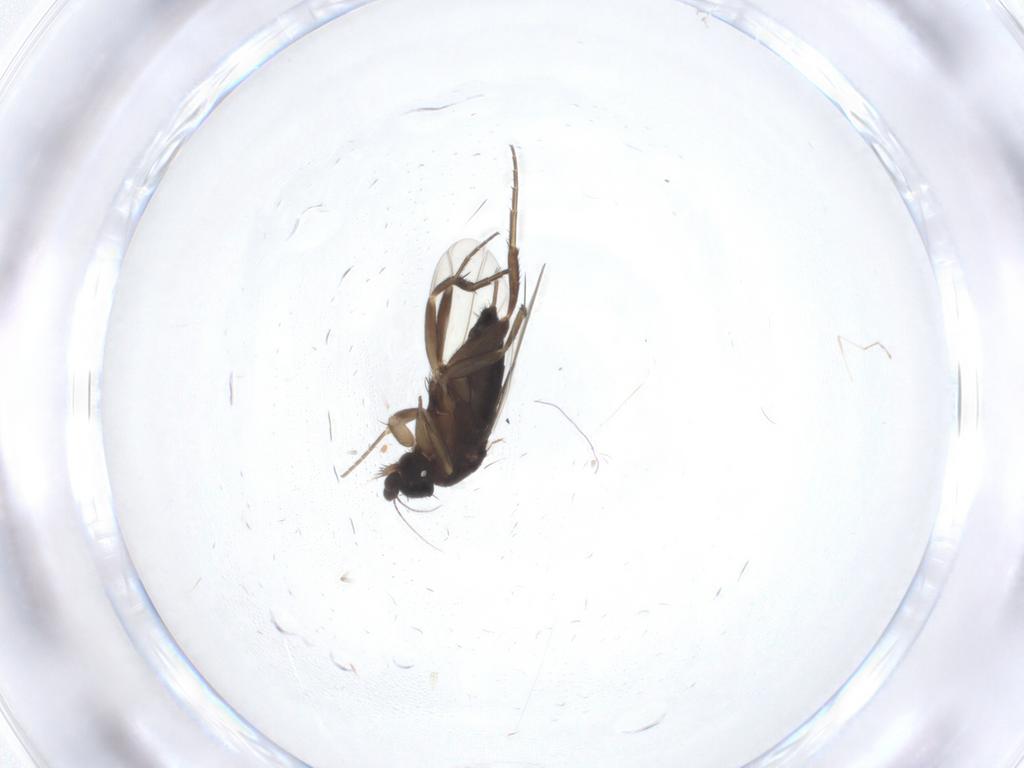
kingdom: Animalia
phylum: Arthropoda
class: Insecta
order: Diptera
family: Phoridae
